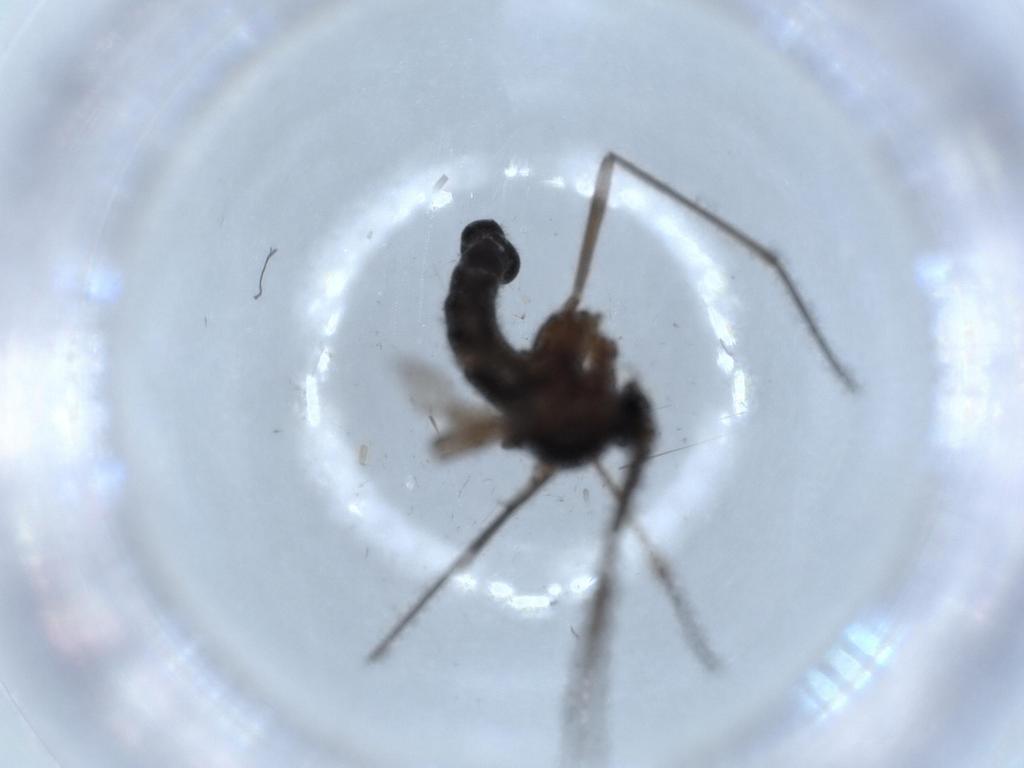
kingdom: Animalia
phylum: Arthropoda
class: Insecta
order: Diptera
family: Sciaridae
